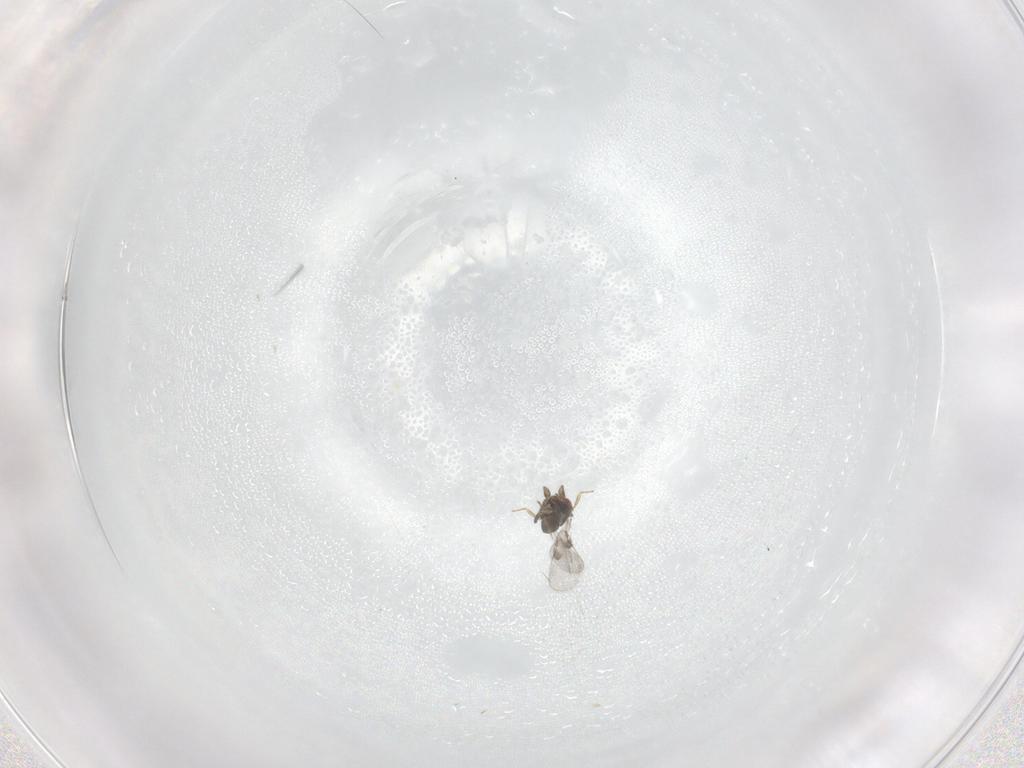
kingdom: Animalia
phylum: Arthropoda
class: Insecta
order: Hymenoptera
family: Trichogrammatidae
